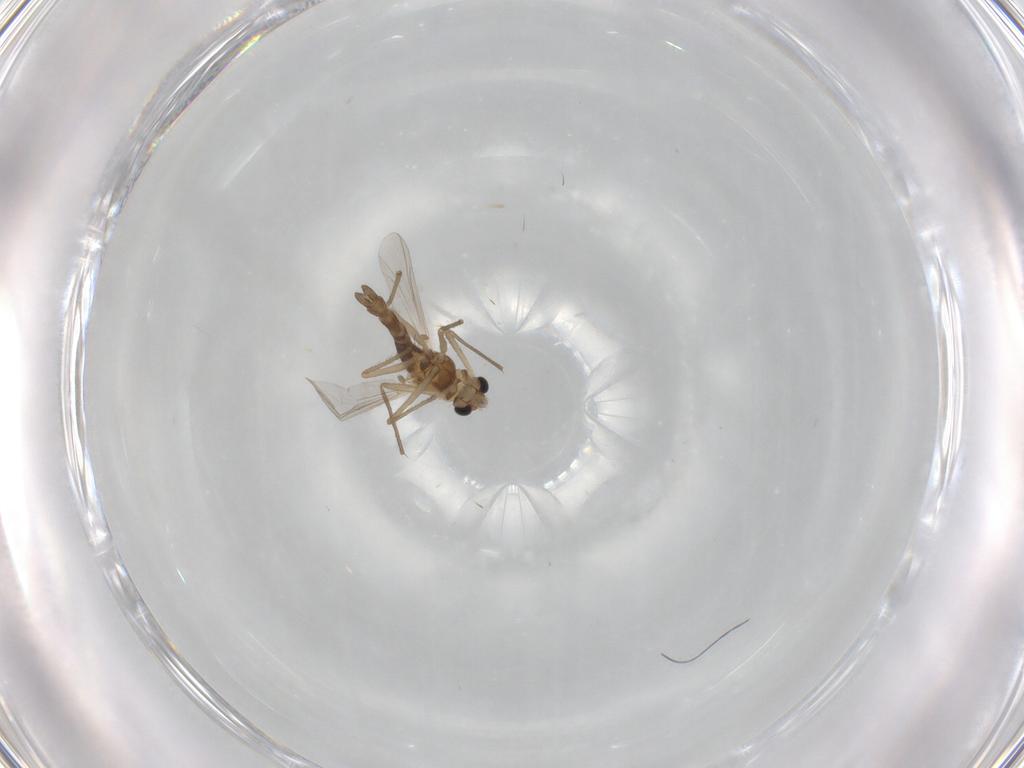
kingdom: Animalia
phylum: Arthropoda
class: Insecta
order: Diptera
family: Chironomidae
